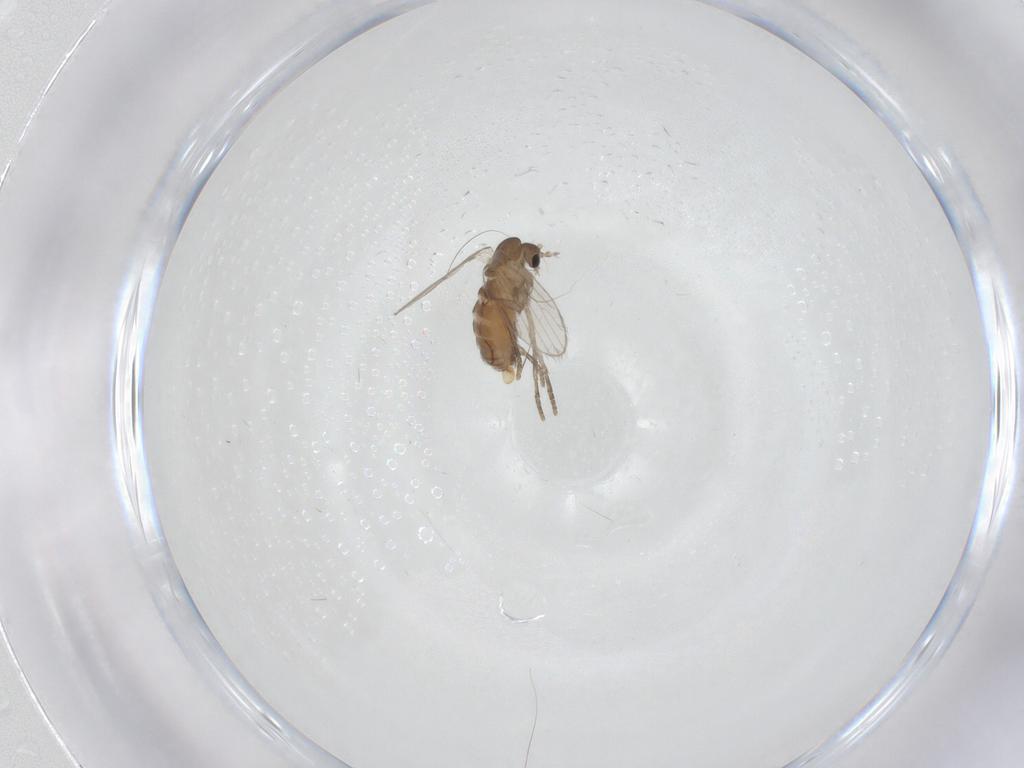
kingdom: Animalia
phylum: Arthropoda
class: Insecta
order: Diptera
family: Psychodidae
